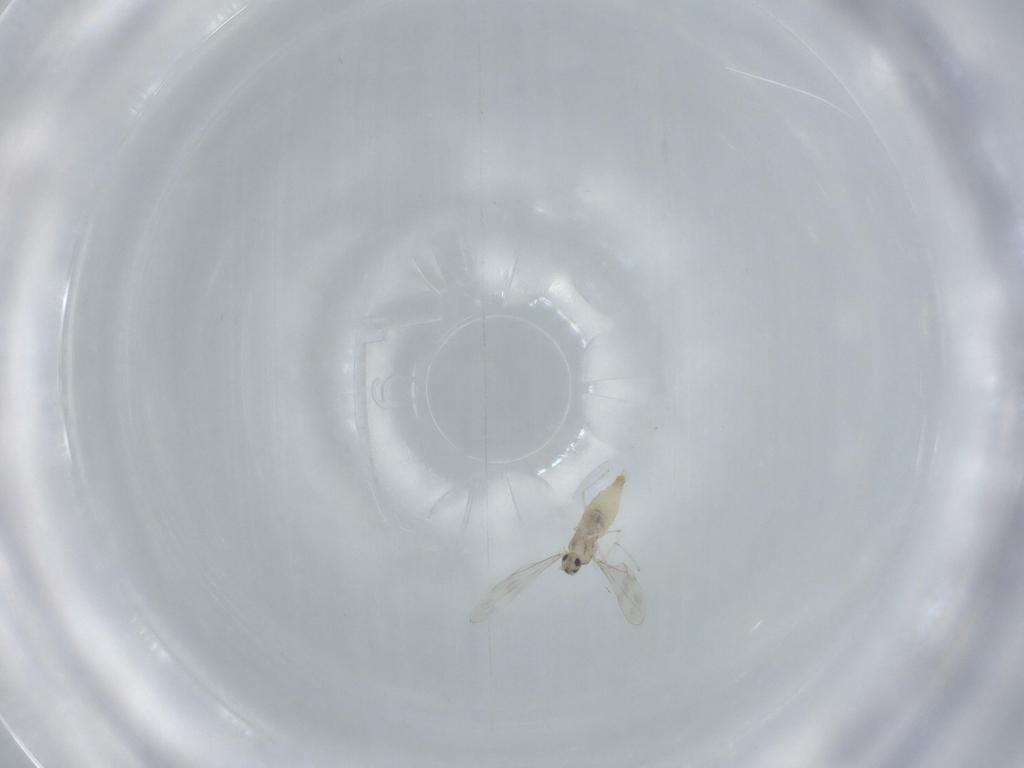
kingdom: Animalia
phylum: Arthropoda
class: Insecta
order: Diptera
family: Cecidomyiidae
